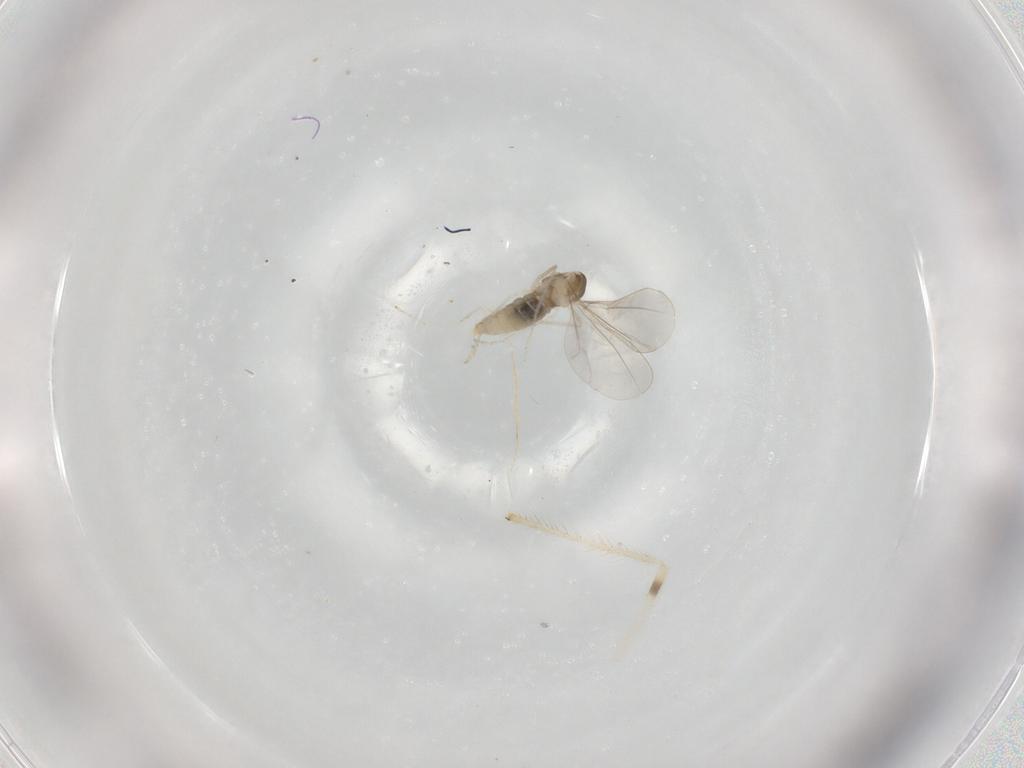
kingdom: Animalia
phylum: Arthropoda
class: Insecta
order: Diptera
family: Cecidomyiidae
